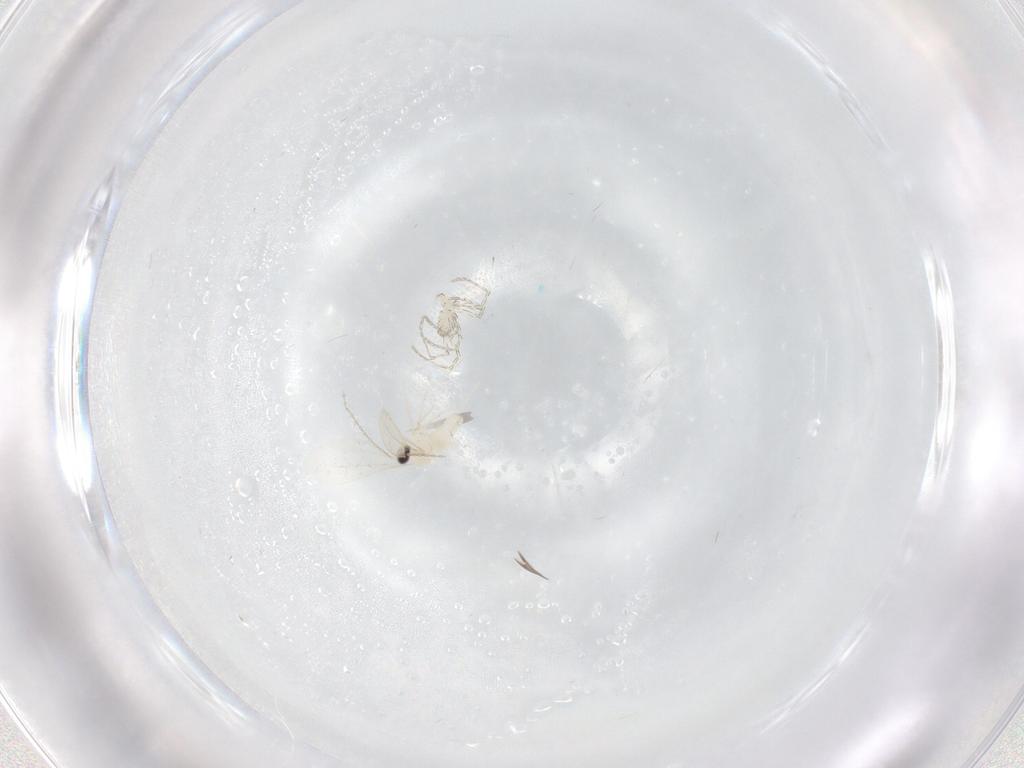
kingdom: Animalia
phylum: Arthropoda
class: Insecta
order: Diptera
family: Cecidomyiidae
